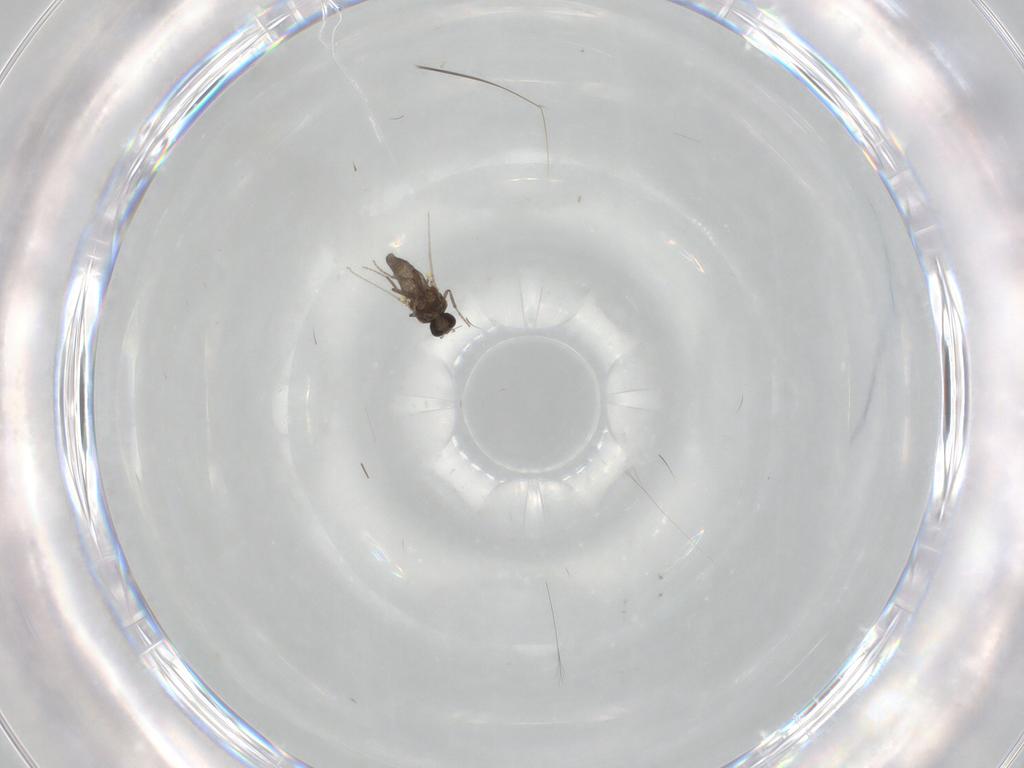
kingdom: Animalia
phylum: Arthropoda
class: Insecta
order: Diptera
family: Ceratopogonidae
